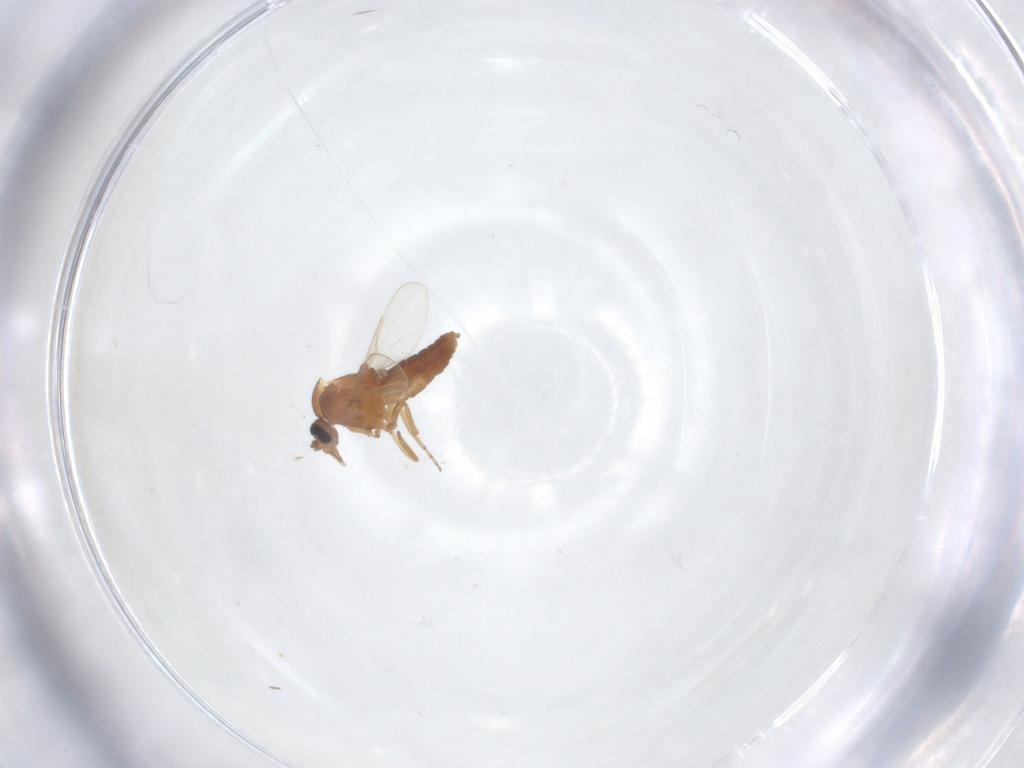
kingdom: Animalia
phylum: Arthropoda
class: Insecta
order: Diptera
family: Ceratopogonidae
